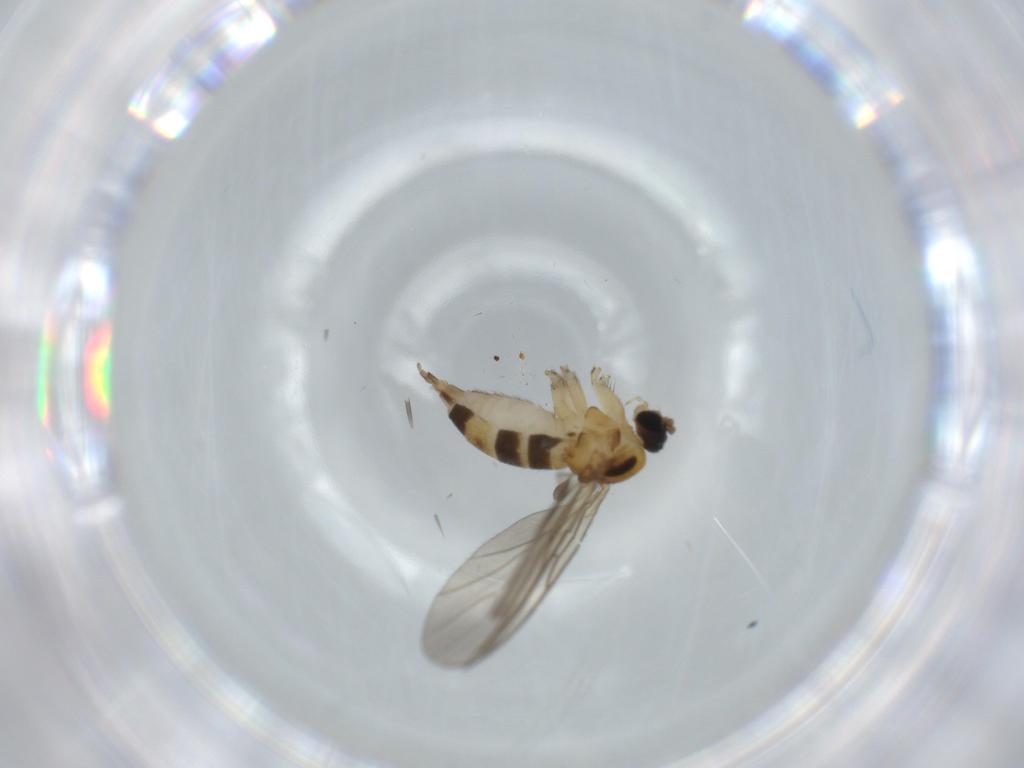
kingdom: Animalia
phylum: Arthropoda
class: Insecta
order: Diptera
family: Sciaridae
